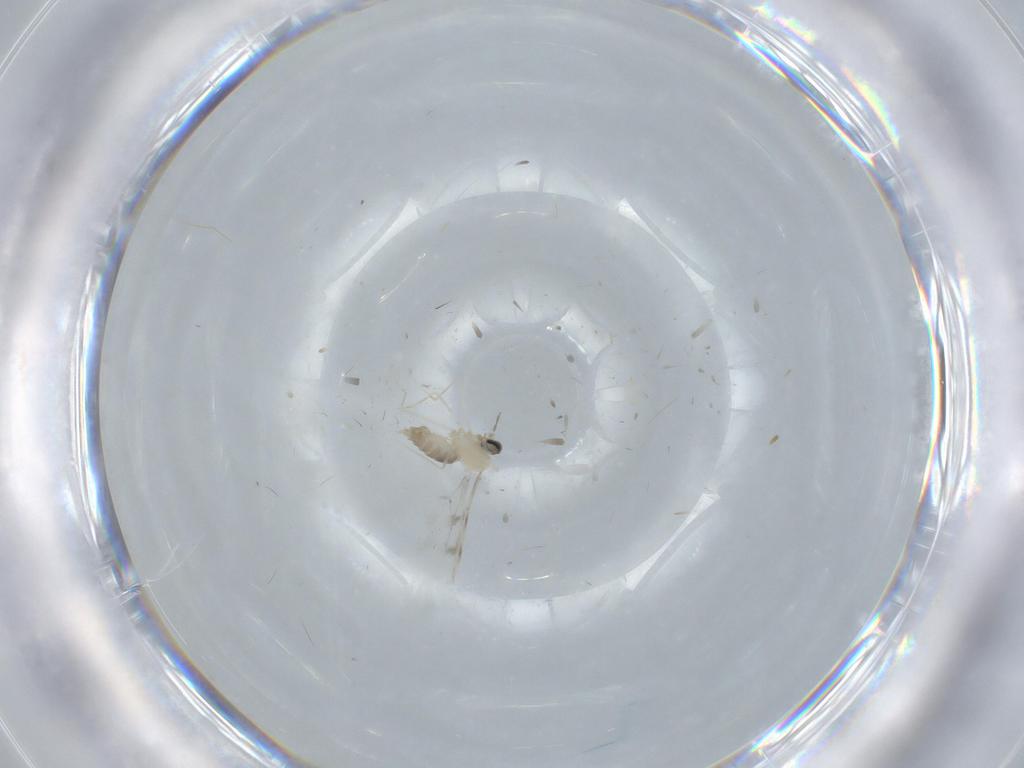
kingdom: Animalia
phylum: Arthropoda
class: Insecta
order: Diptera
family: Cecidomyiidae
